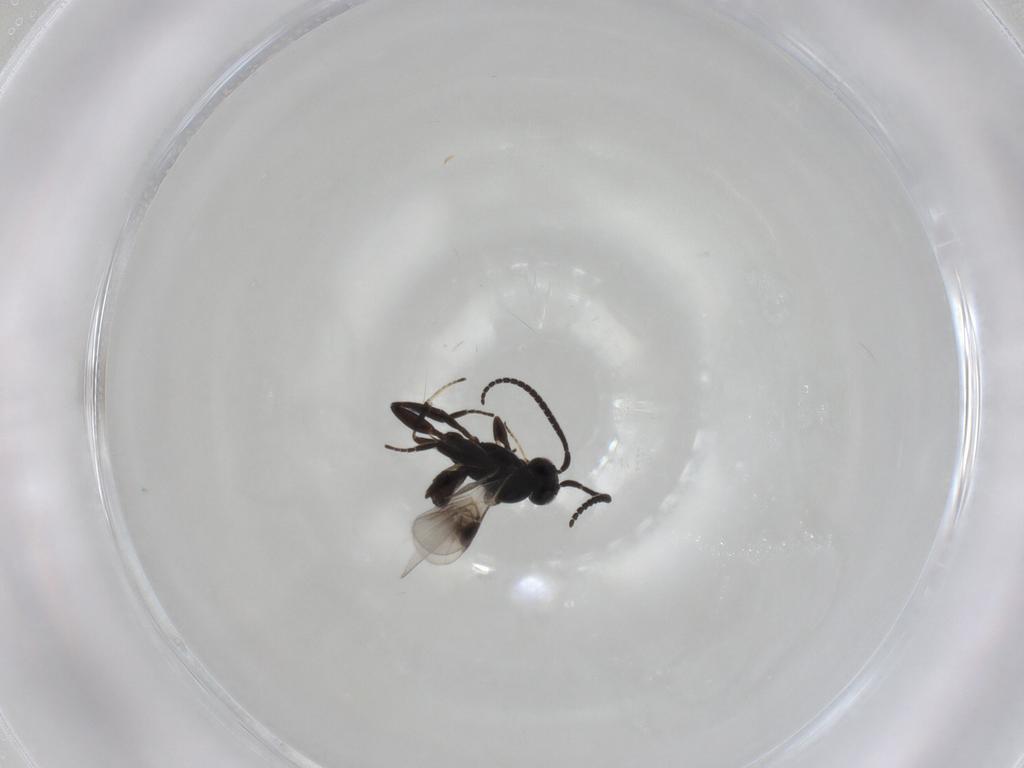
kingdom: Animalia
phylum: Arthropoda
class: Insecta
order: Hymenoptera
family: Braconidae
